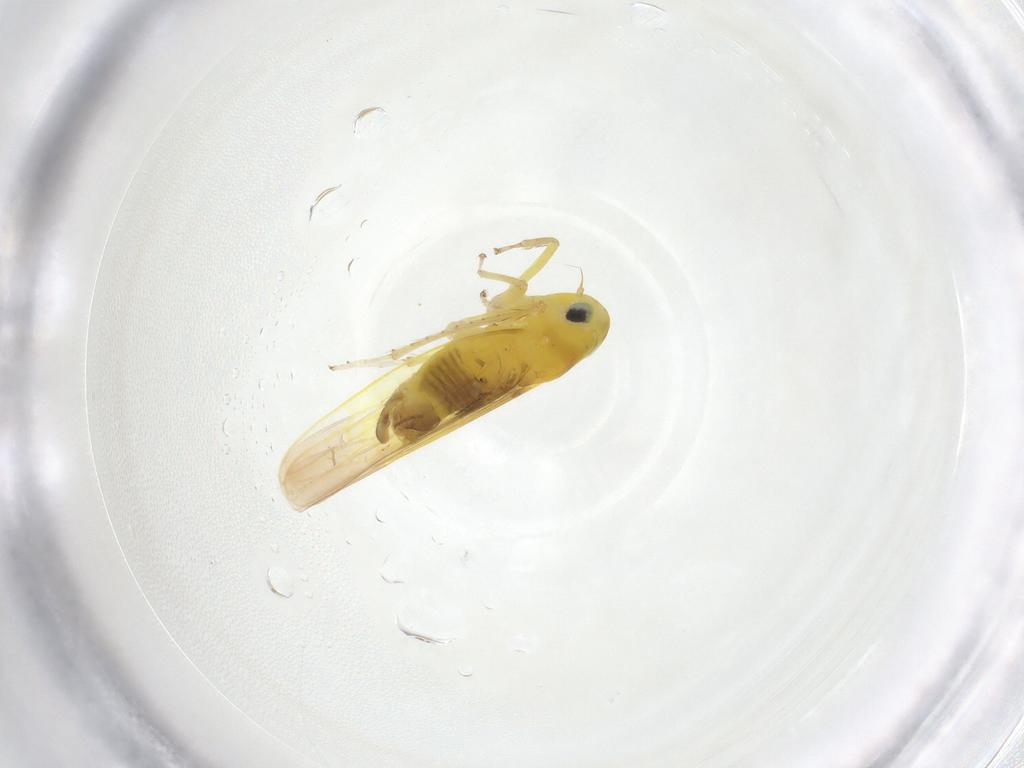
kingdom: Animalia
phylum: Arthropoda
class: Insecta
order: Hemiptera
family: Cicadellidae
